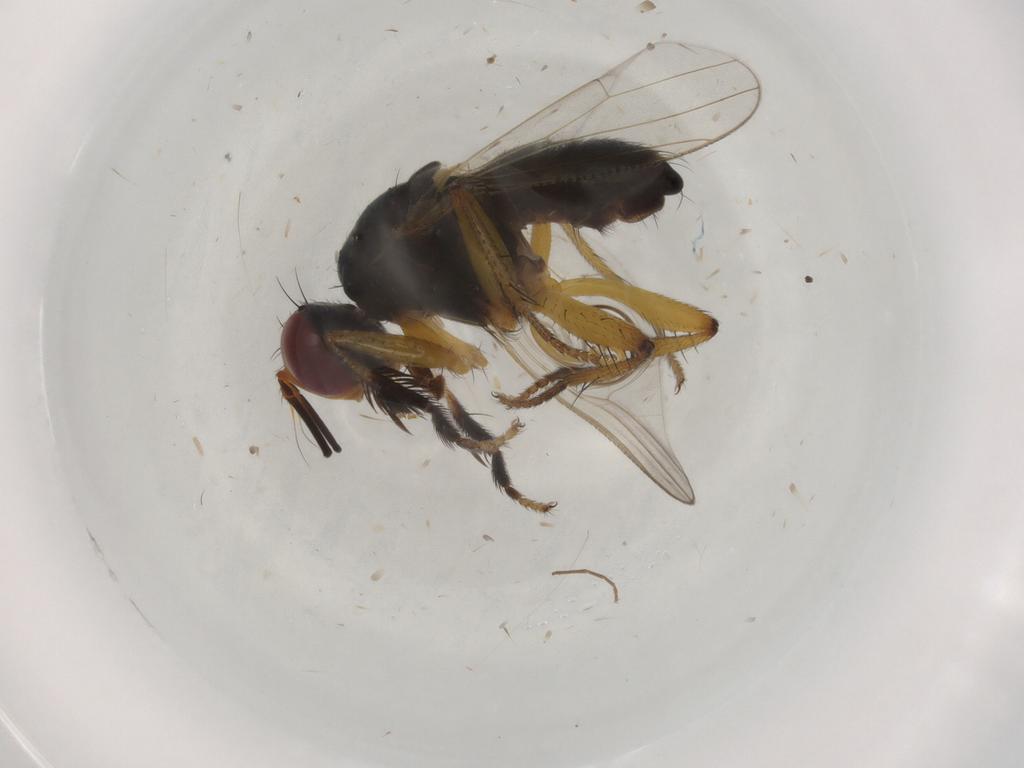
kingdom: Animalia
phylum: Arthropoda
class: Insecta
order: Diptera
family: Muscidae
